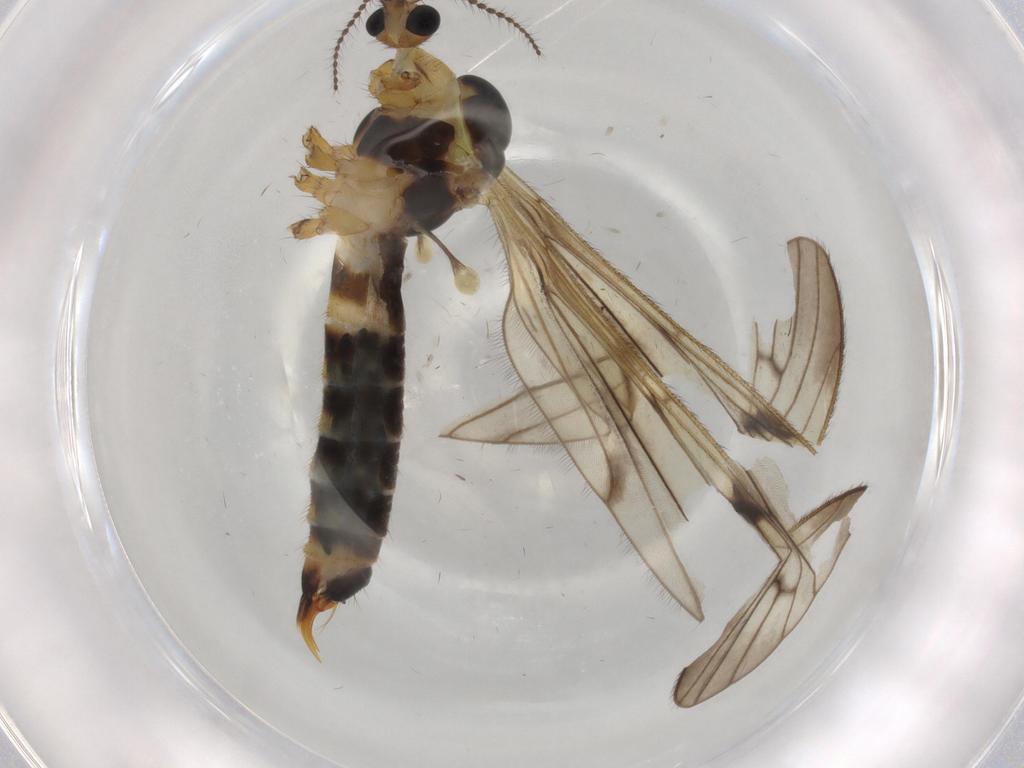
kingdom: Animalia
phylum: Arthropoda
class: Insecta
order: Diptera
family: Limoniidae
